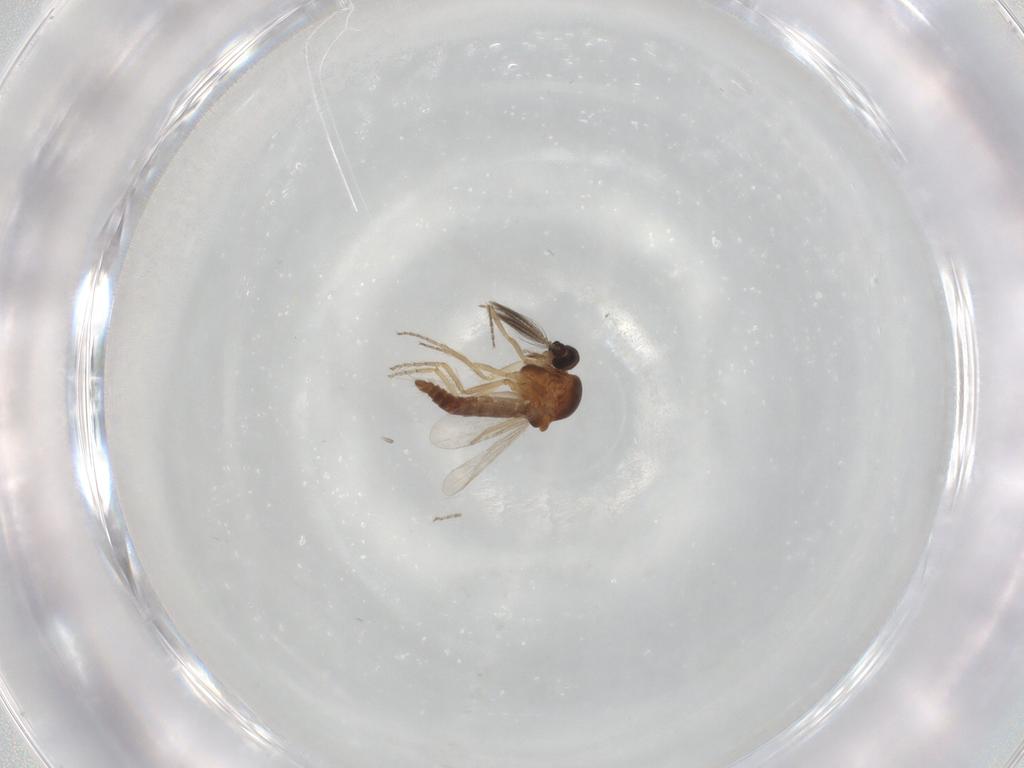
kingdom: Animalia
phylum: Arthropoda
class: Insecta
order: Diptera
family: Ceratopogonidae
